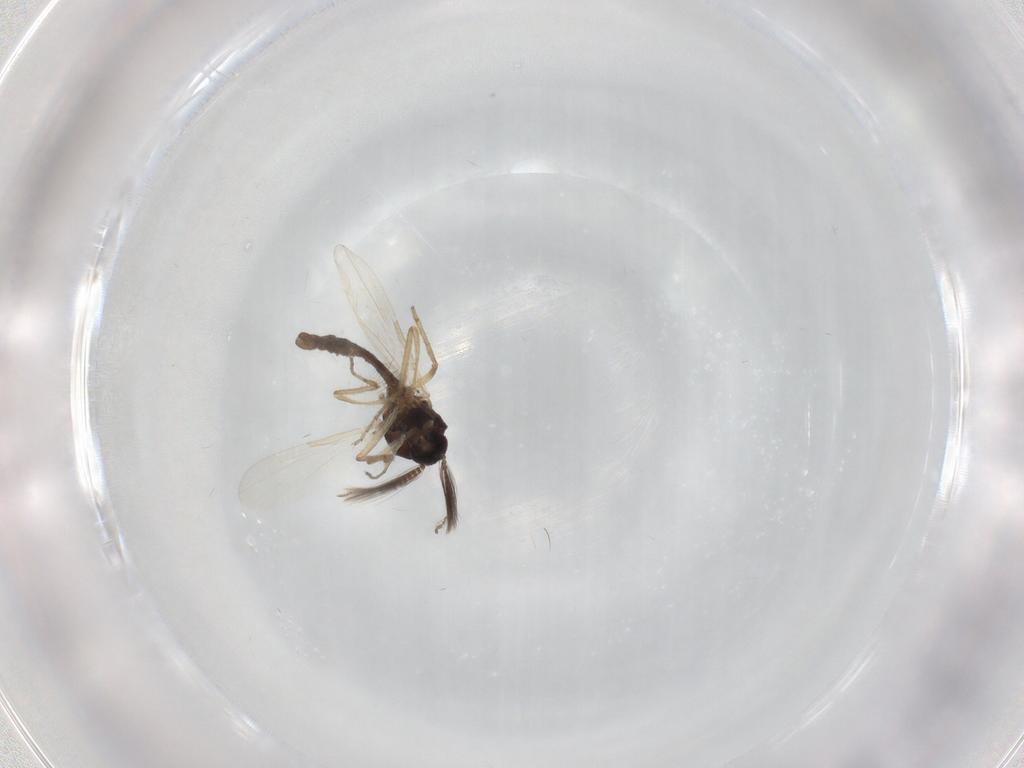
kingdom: Animalia
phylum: Arthropoda
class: Insecta
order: Diptera
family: Ceratopogonidae
